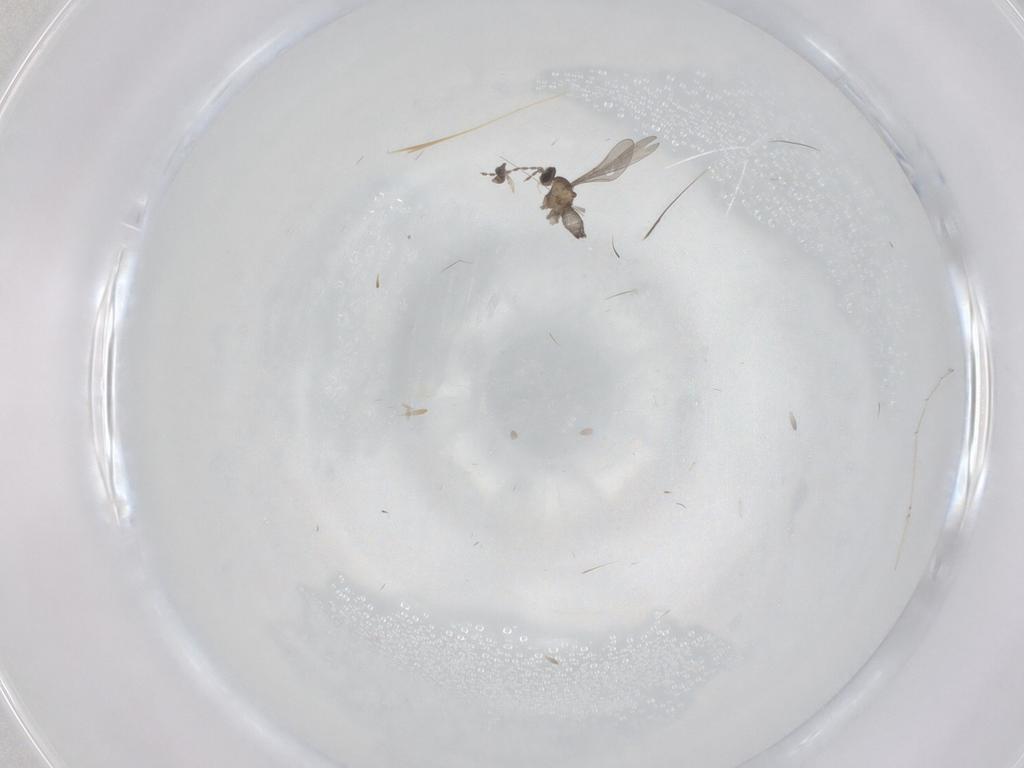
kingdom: Animalia
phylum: Arthropoda
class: Insecta
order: Diptera
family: Cecidomyiidae
